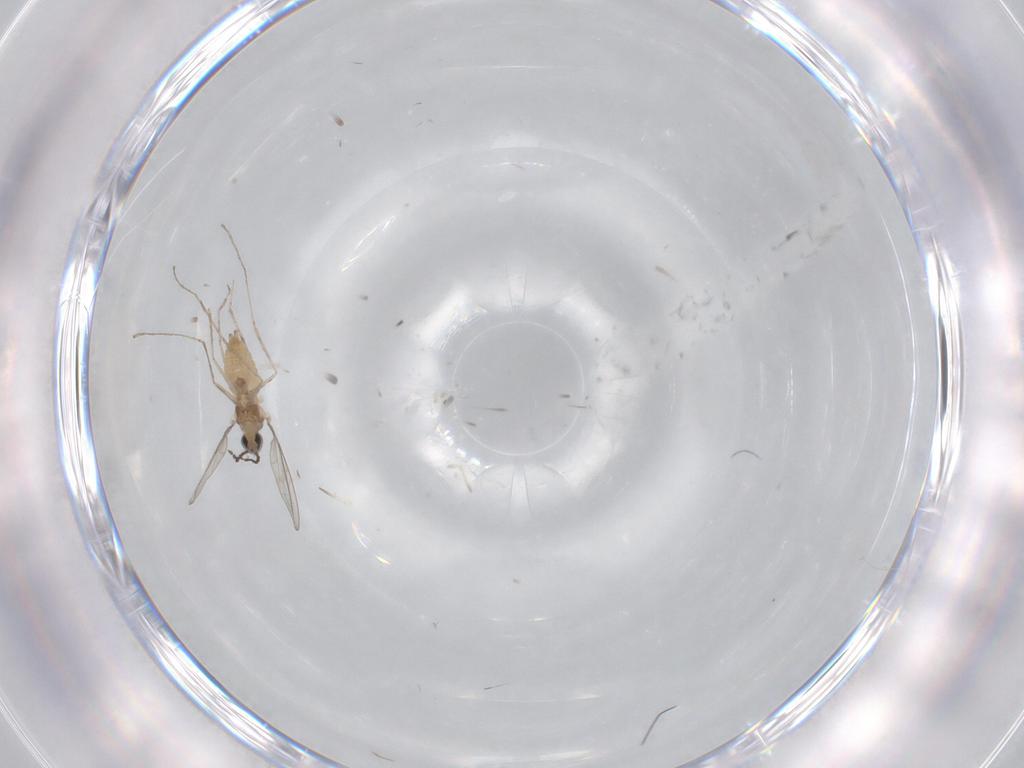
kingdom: Animalia
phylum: Arthropoda
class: Insecta
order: Diptera
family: Cecidomyiidae
